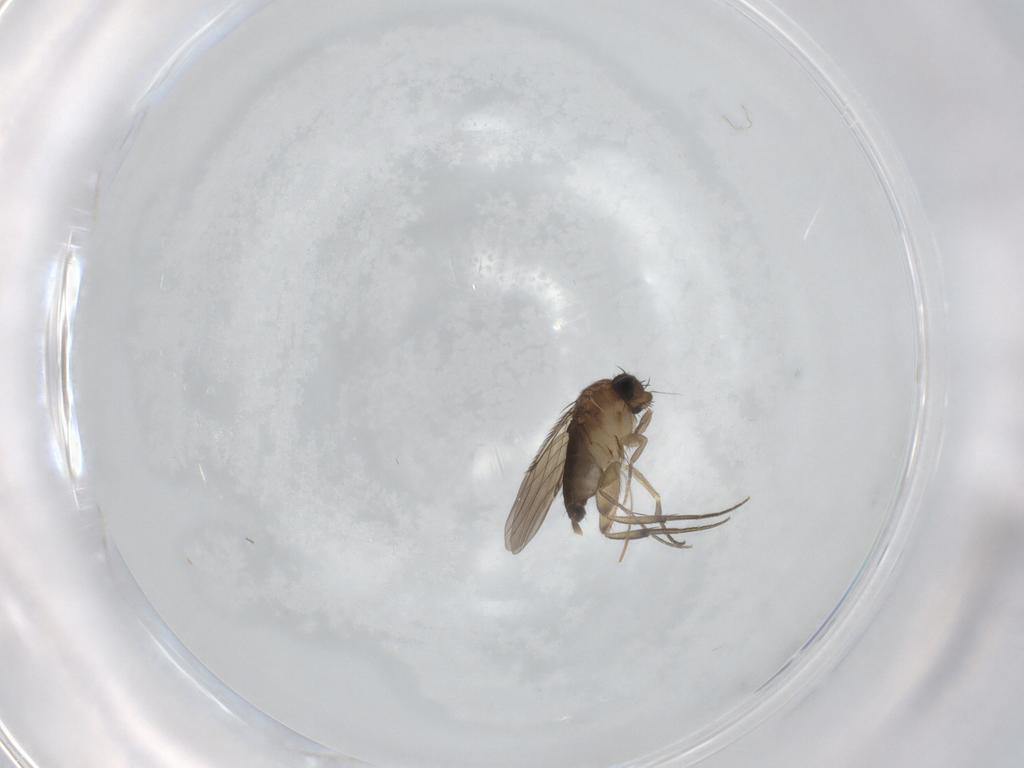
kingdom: Animalia
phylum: Arthropoda
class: Insecta
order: Diptera
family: Phoridae
